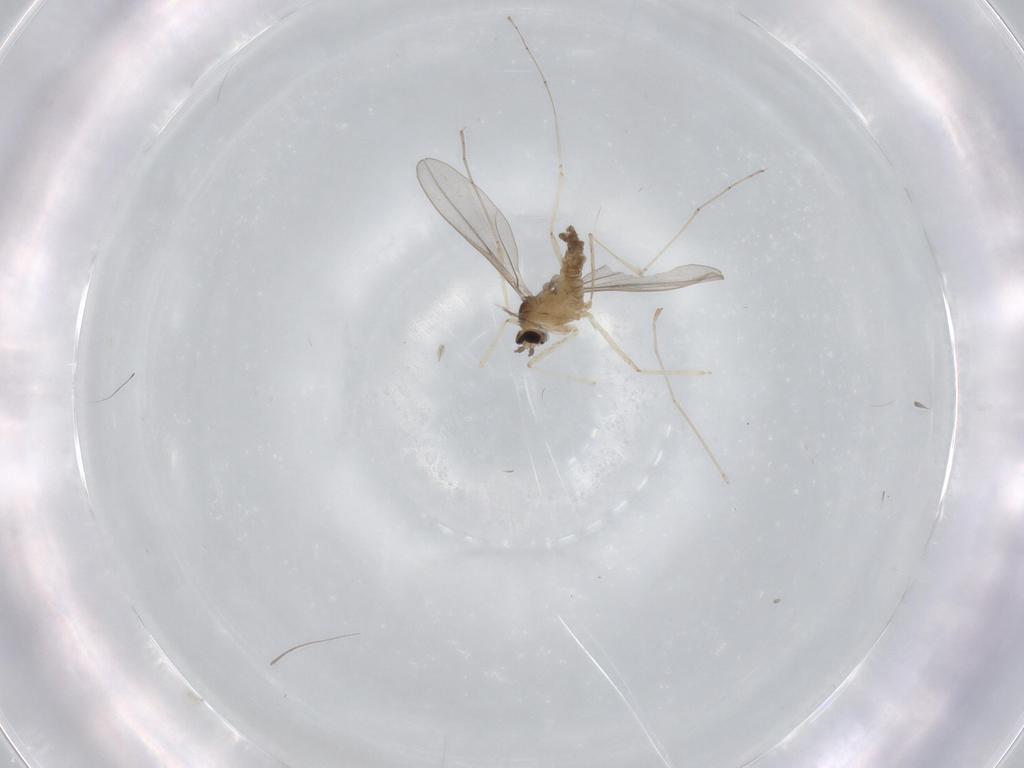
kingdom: Animalia
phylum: Arthropoda
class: Insecta
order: Diptera
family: Cecidomyiidae
